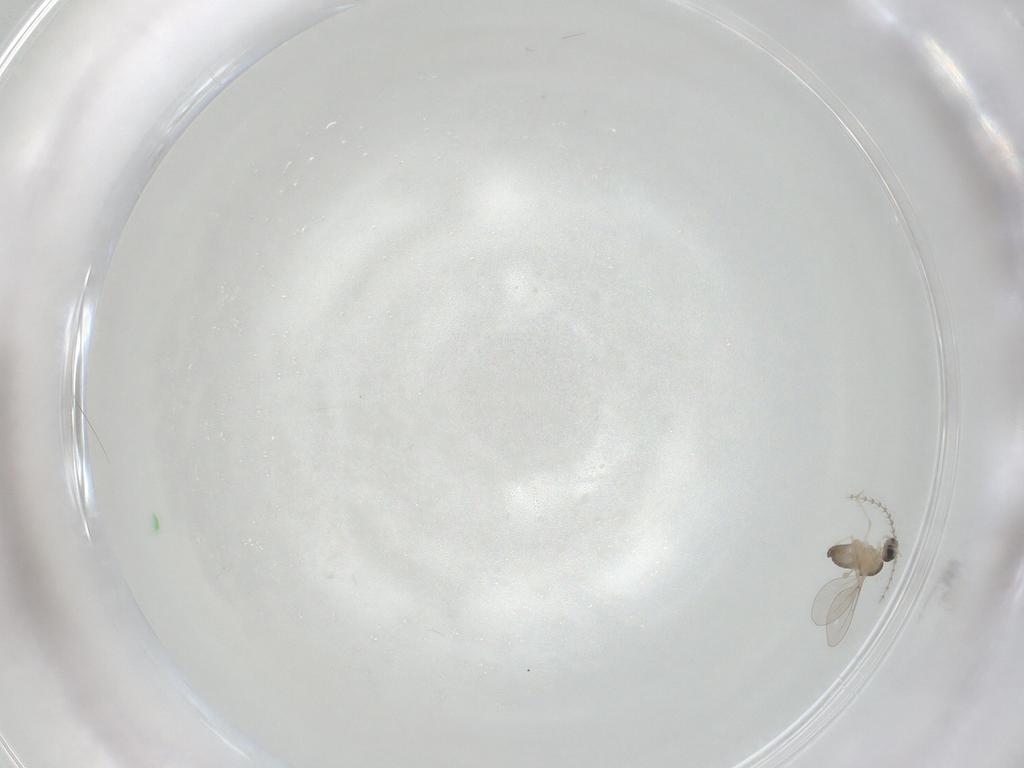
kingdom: Animalia
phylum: Arthropoda
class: Insecta
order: Diptera
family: Cecidomyiidae
